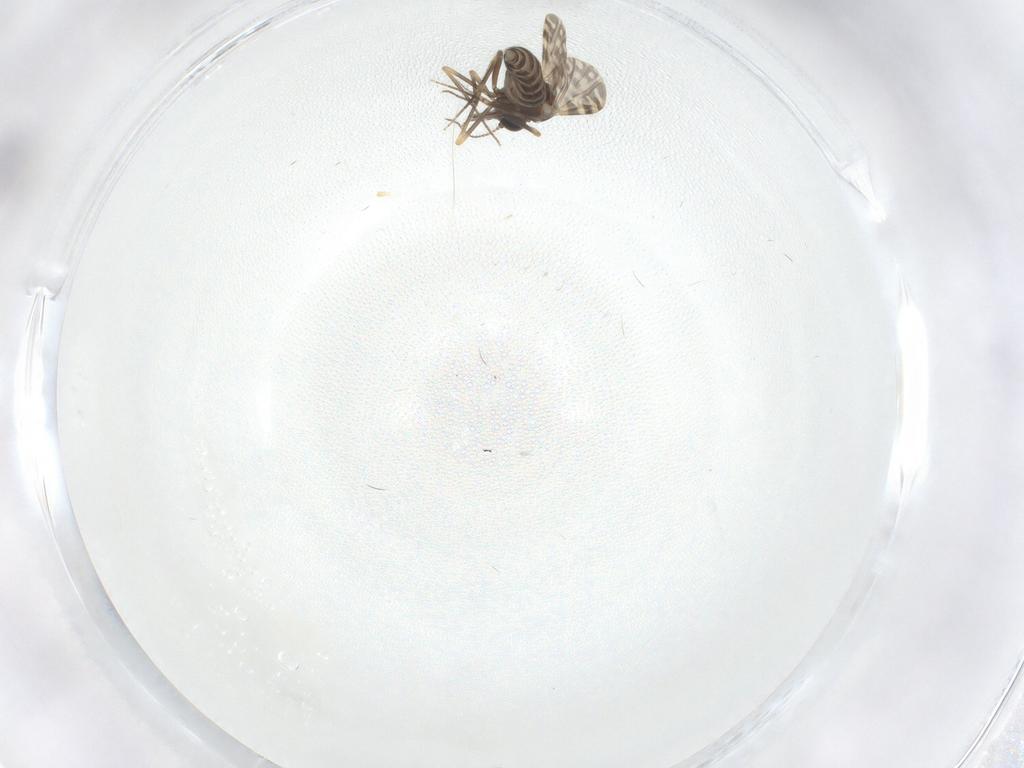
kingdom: Animalia
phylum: Arthropoda
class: Insecta
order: Diptera
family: Ceratopogonidae
